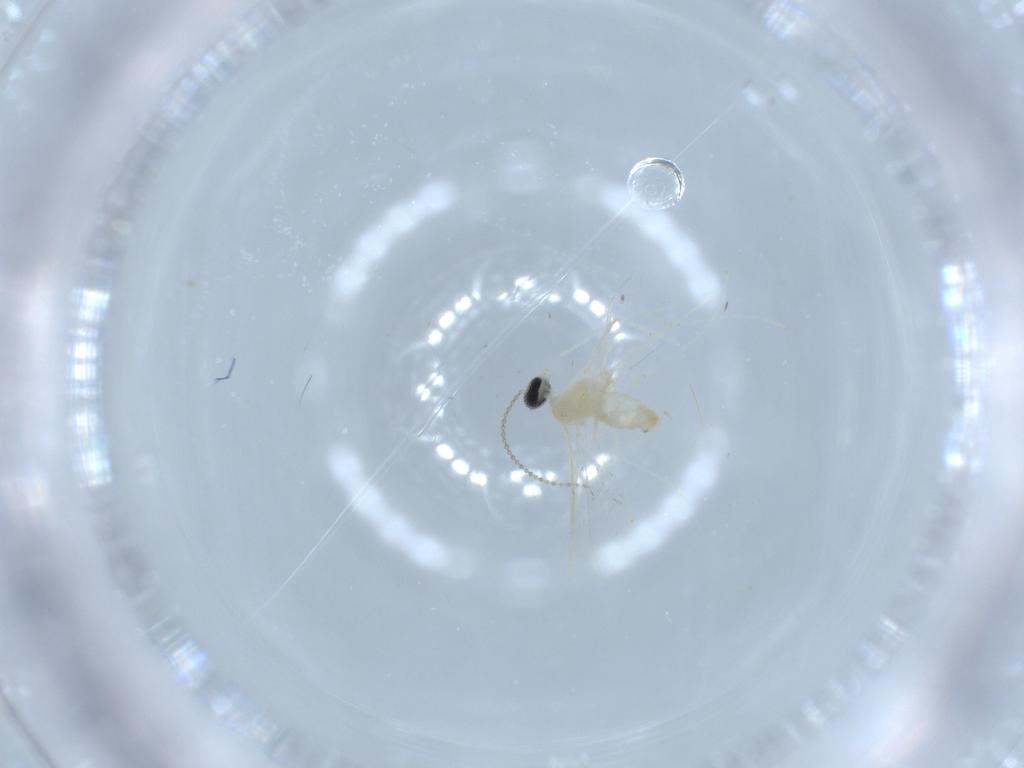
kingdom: Animalia
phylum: Arthropoda
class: Insecta
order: Diptera
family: Cecidomyiidae
